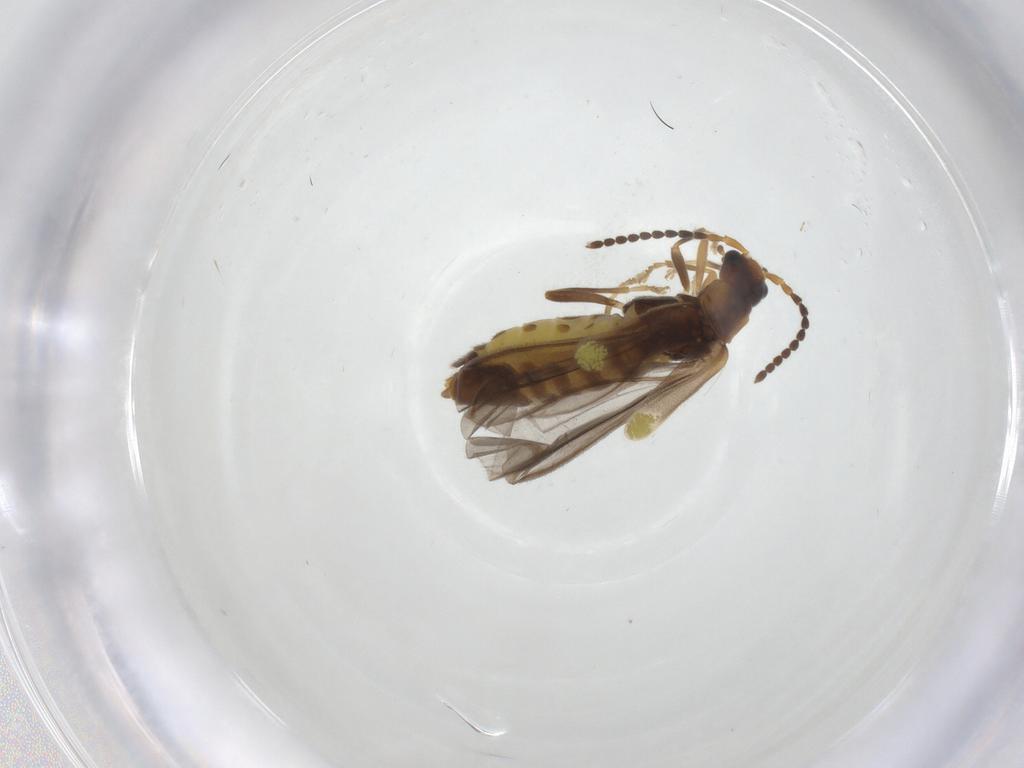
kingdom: Animalia
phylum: Arthropoda
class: Insecta
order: Coleoptera
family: Cantharidae
